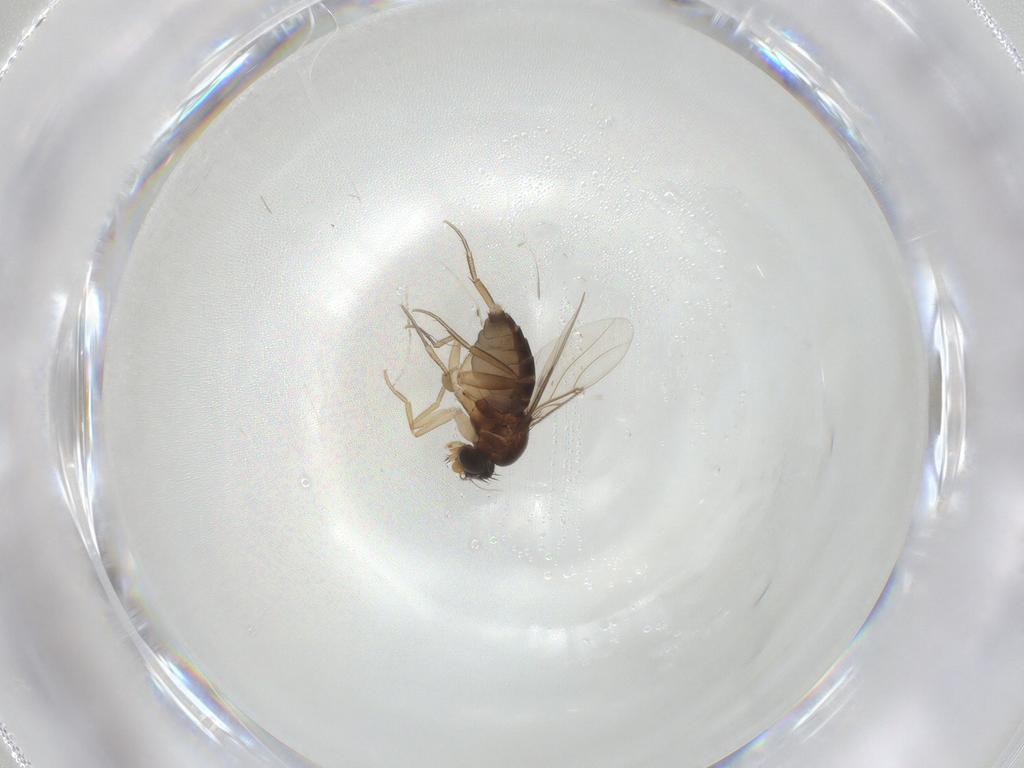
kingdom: Animalia
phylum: Arthropoda
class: Insecta
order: Diptera
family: Phoridae
